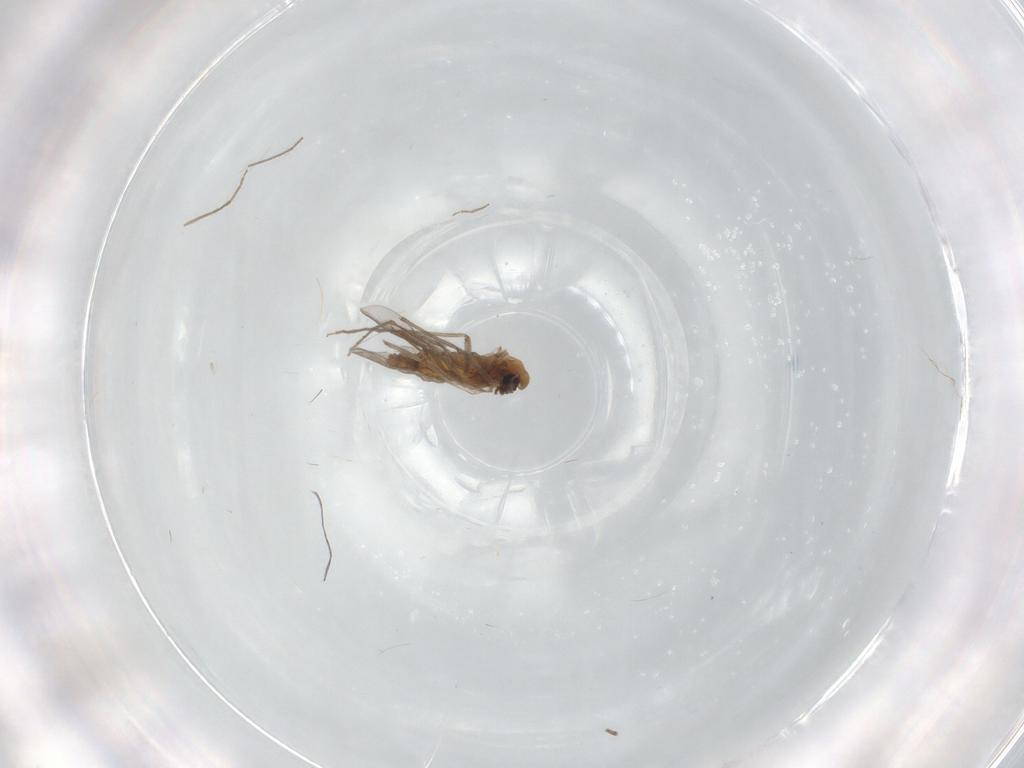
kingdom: Animalia
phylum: Arthropoda
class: Insecta
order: Diptera
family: Chironomidae
